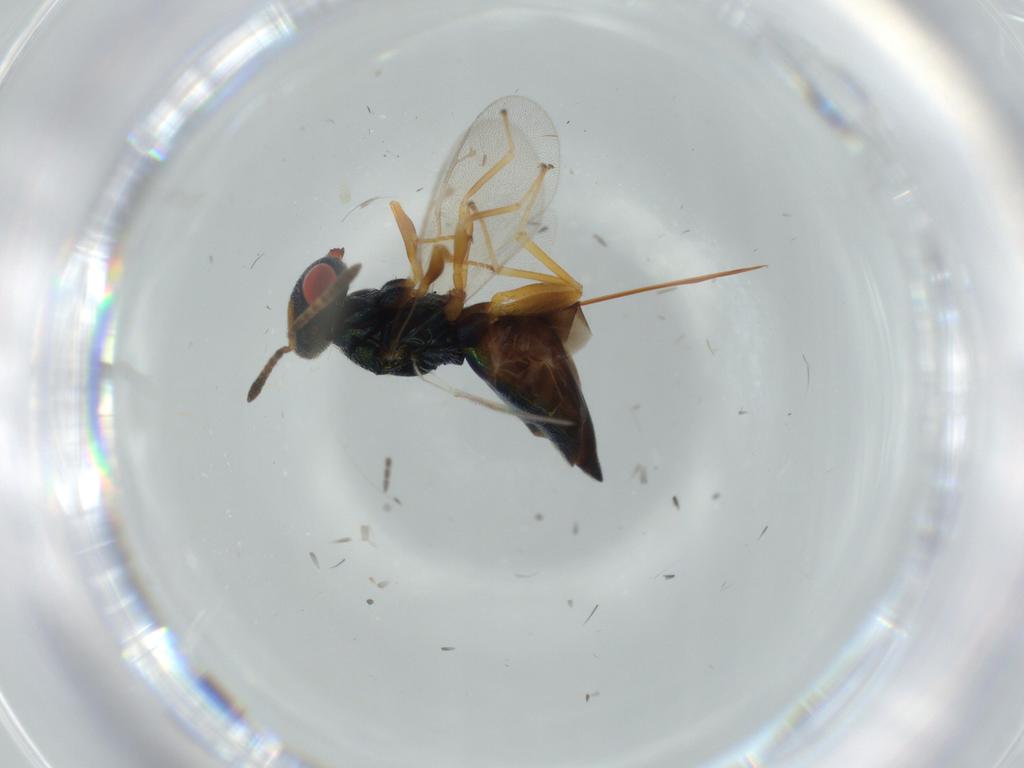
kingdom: Animalia
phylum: Arthropoda
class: Insecta
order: Hymenoptera
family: Pteromalidae
